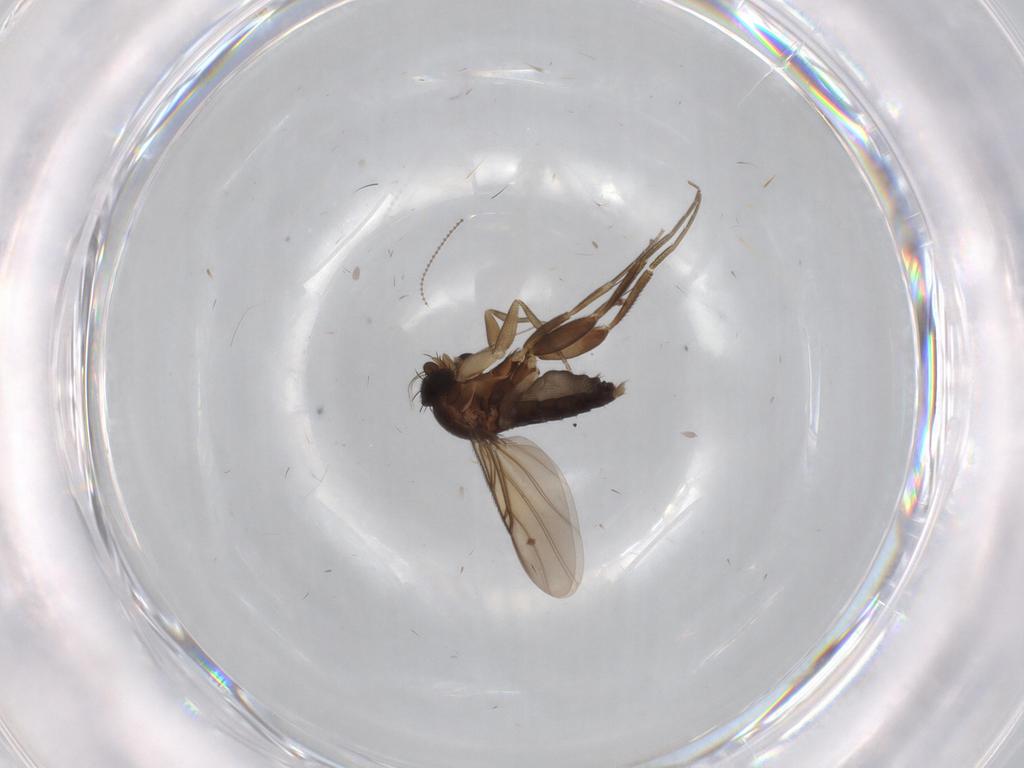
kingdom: Animalia
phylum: Arthropoda
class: Insecta
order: Diptera
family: Phoridae
